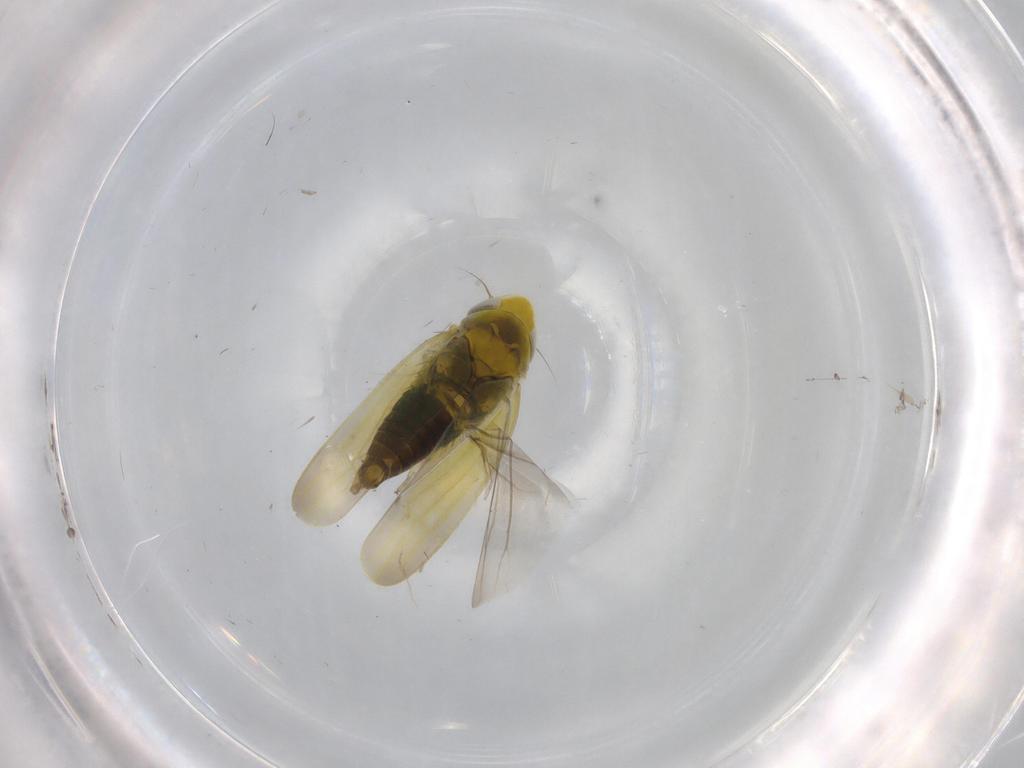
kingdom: Animalia
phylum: Arthropoda
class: Insecta
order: Hemiptera
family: Cicadellidae
